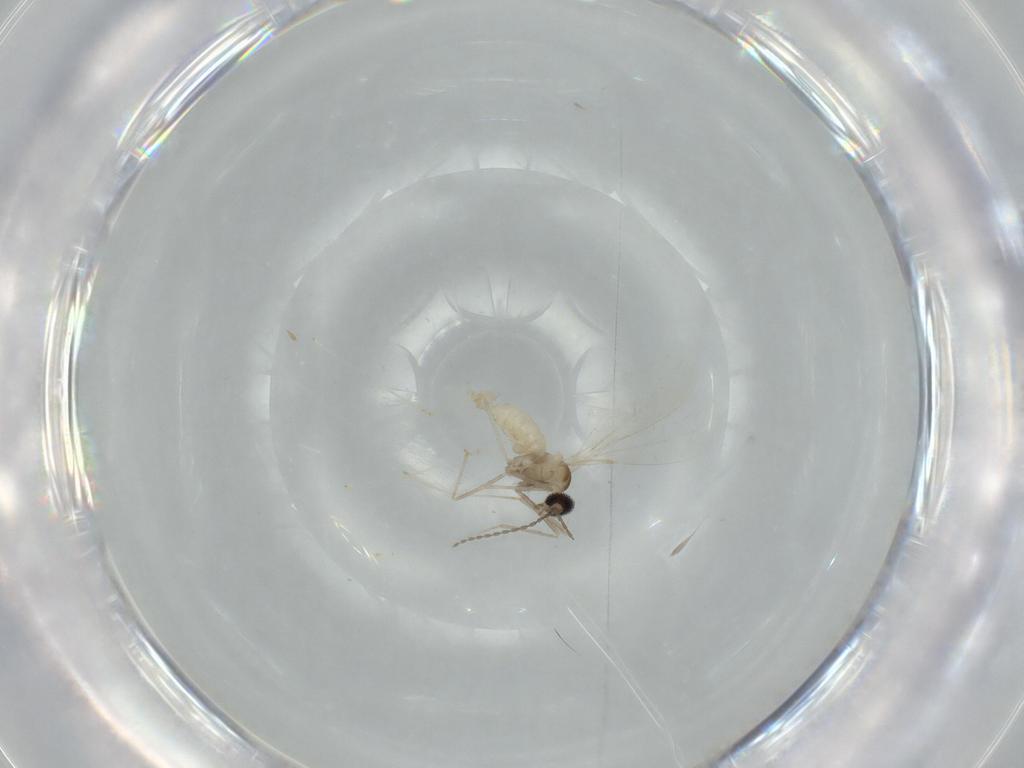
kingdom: Animalia
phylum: Arthropoda
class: Insecta
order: Diptera
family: Cecidomyiidae
